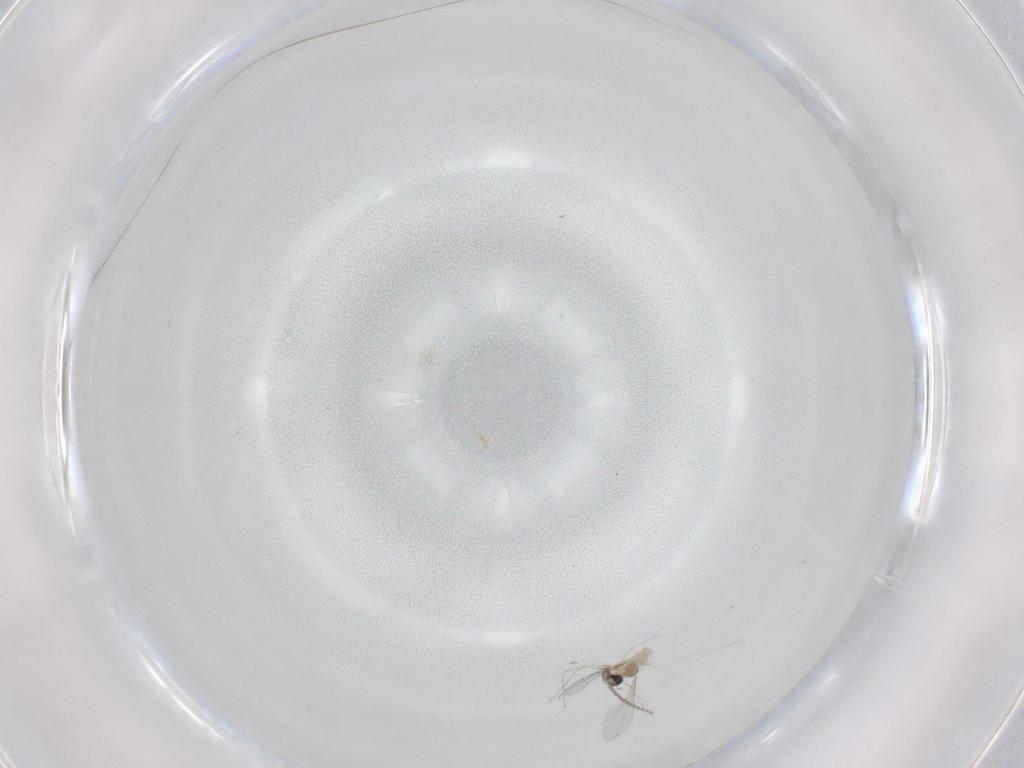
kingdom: Animalia
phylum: Arthropoda
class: Insecta
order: Diptera
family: Cecidomyiidae
